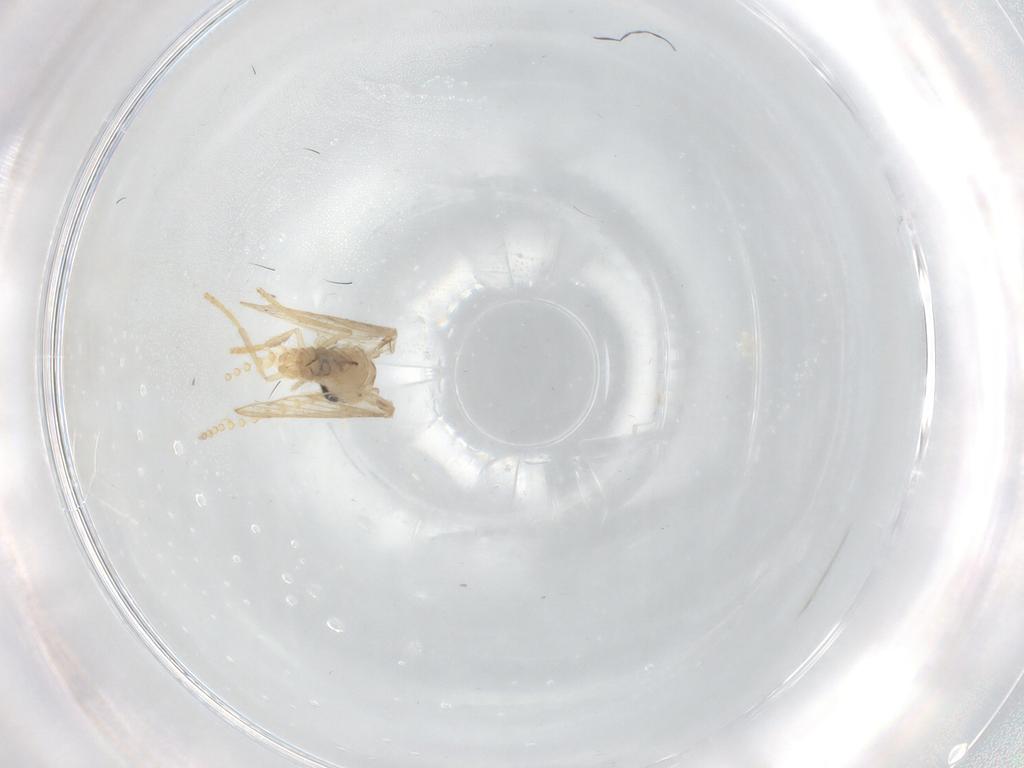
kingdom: Animalia
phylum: Arthropoda
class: Insecta
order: Diptera
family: Psychodidae
